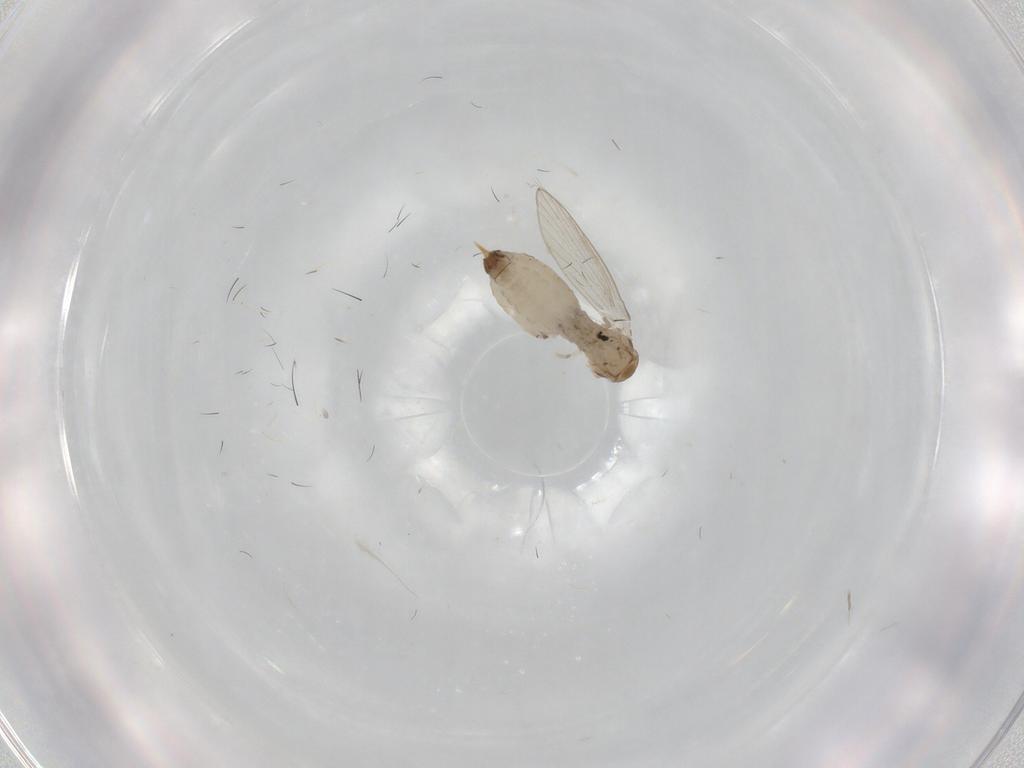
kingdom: Animalia
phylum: Arthropoda
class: Insecta
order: Diptera
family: Psychodidae
